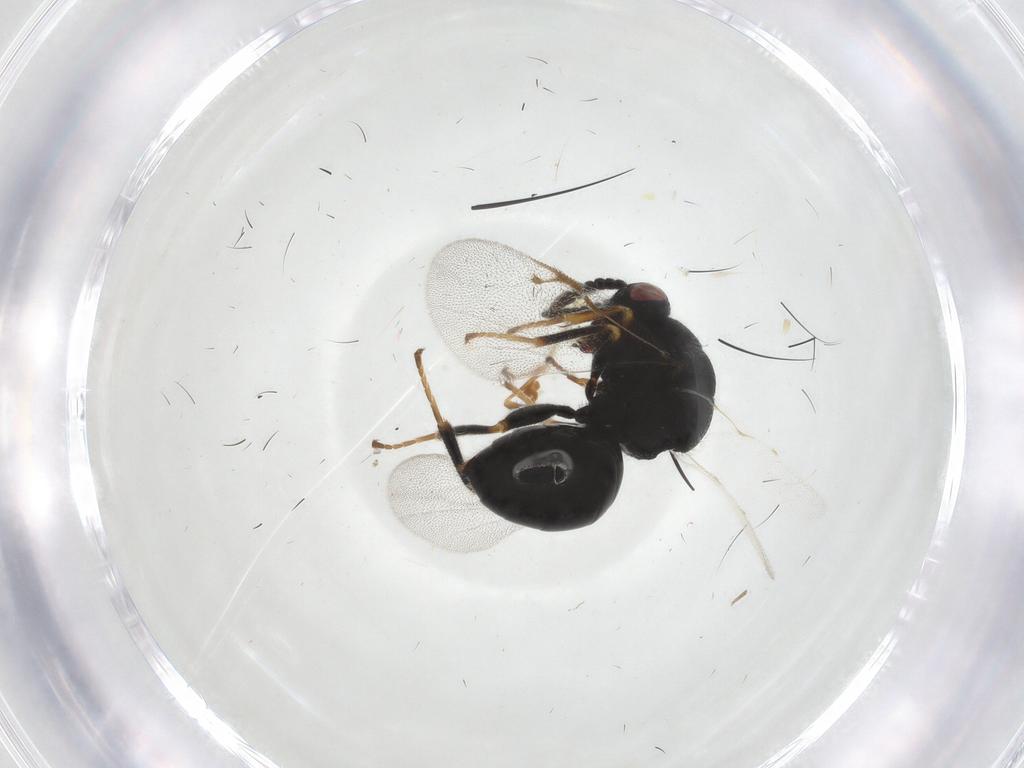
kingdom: Animalia
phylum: Arthropoda
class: Insecta
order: Hymenoptera
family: Eurytomidae
